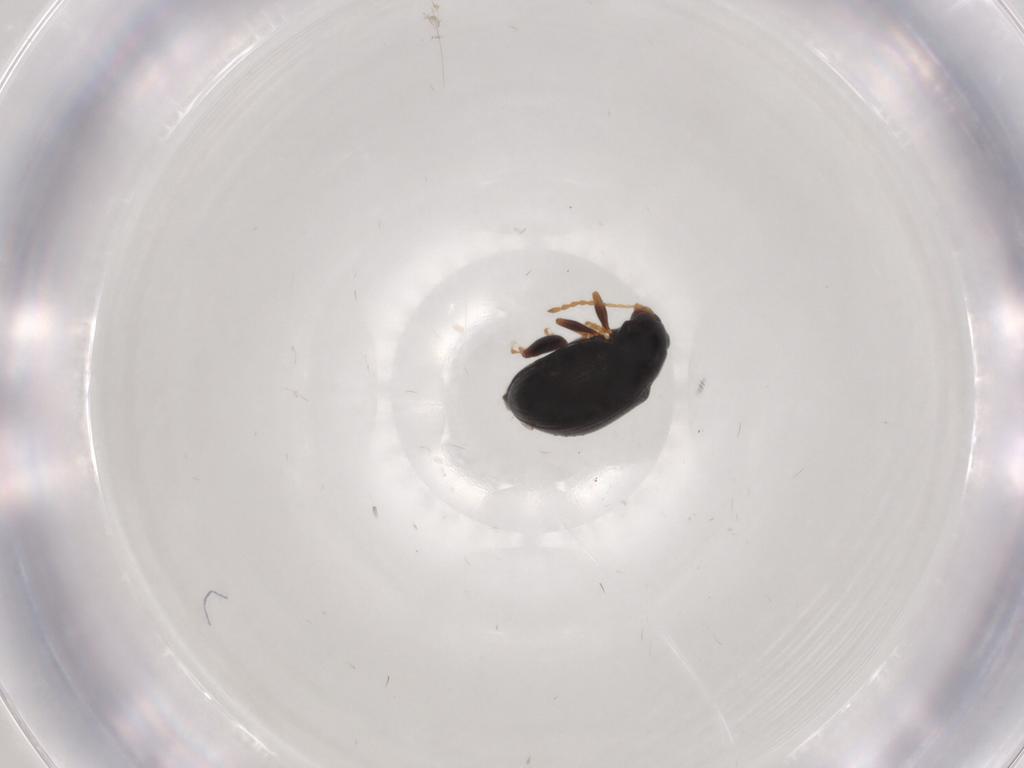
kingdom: Animalia
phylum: Arthropoda
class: Insecta
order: Coleoptera
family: Chrysomelidae
